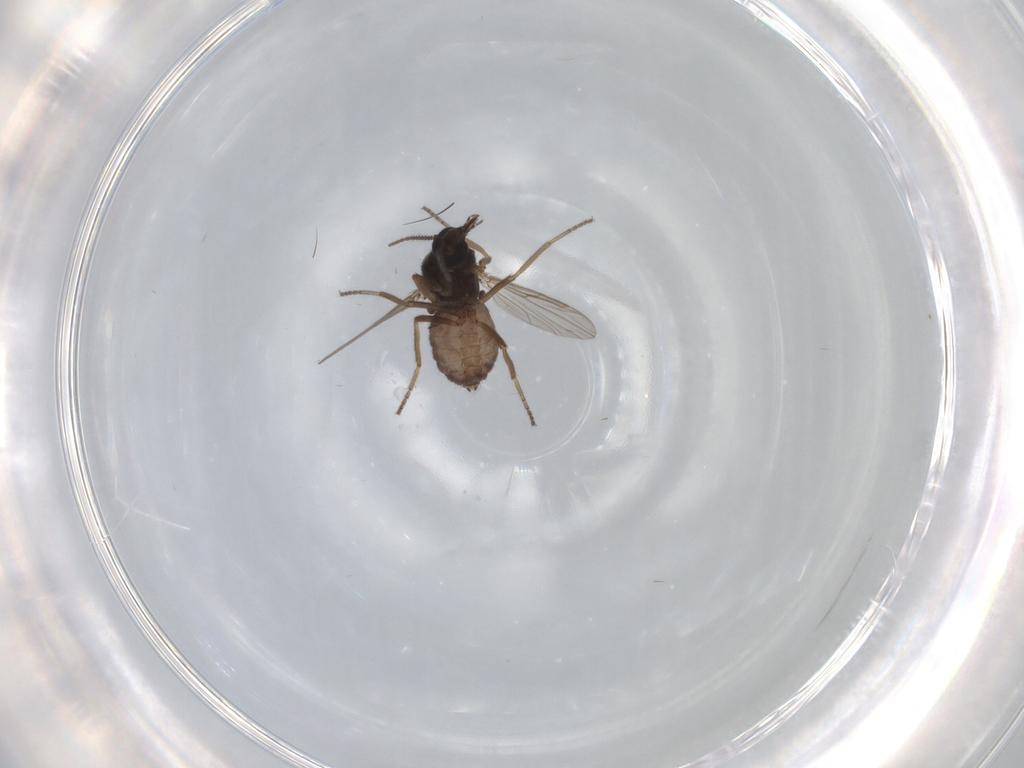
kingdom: Animalia
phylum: Arthropoda
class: Insecta
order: Diptera
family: Ceratopogonidae
